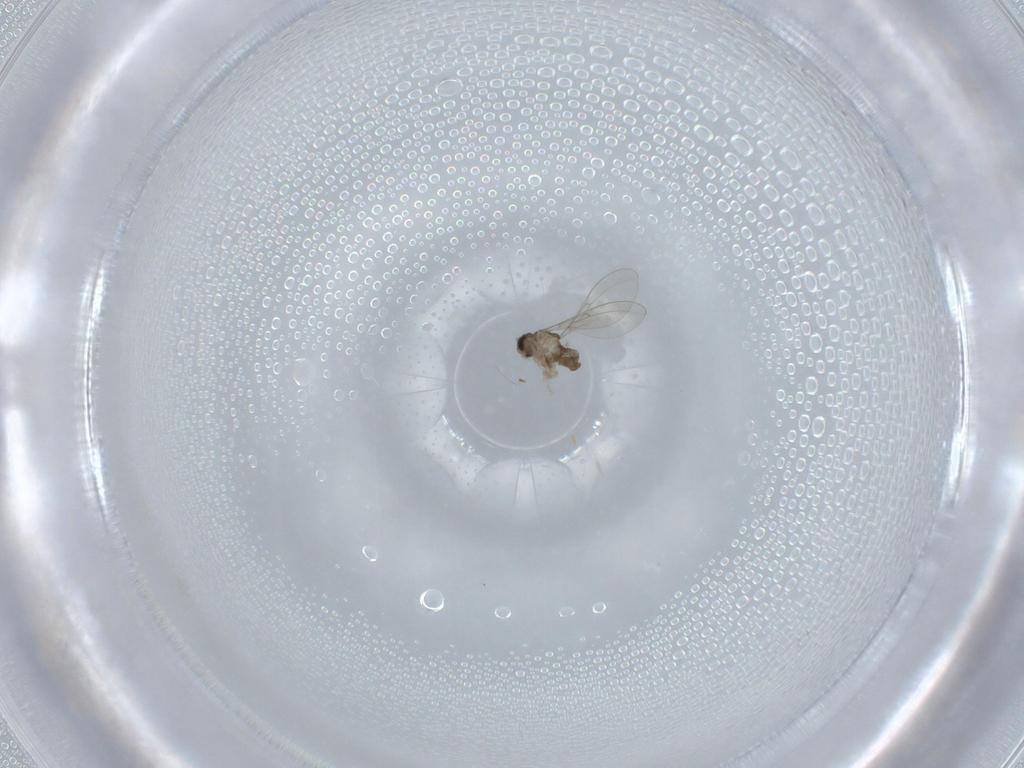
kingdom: Animalia
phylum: Arthropoda
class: Insecta
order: Diptera
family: Cecidomyiidae
